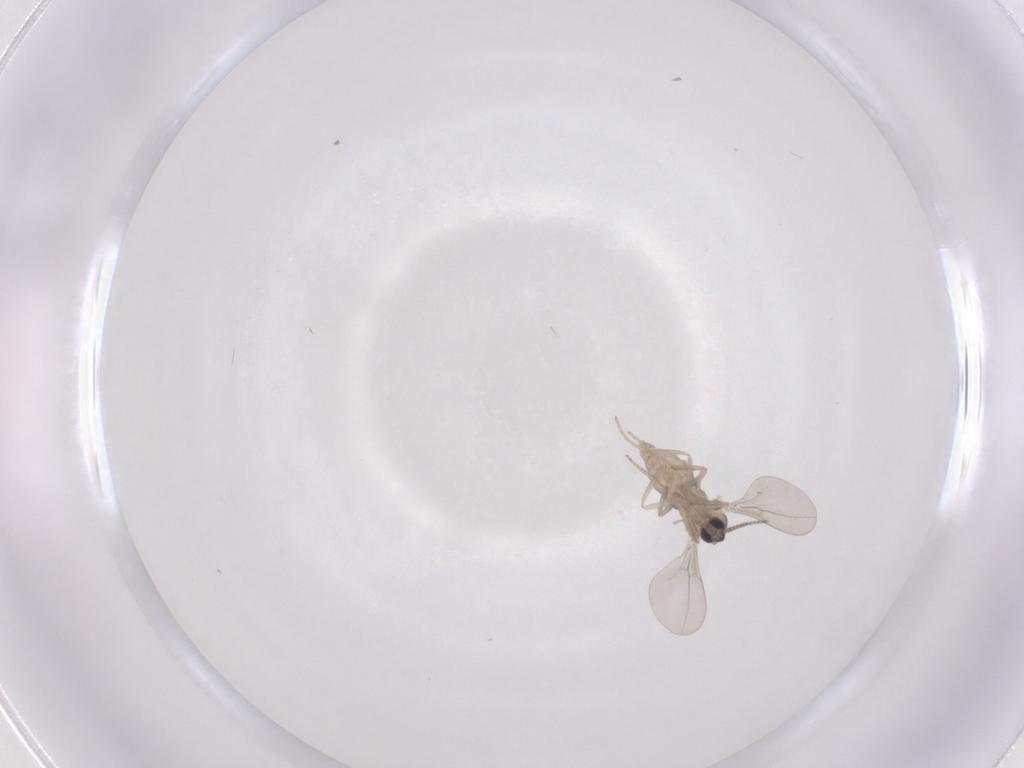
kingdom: Animalia
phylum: Arthropoda
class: Insecta
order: Diptera
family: Cecidomyiidae
